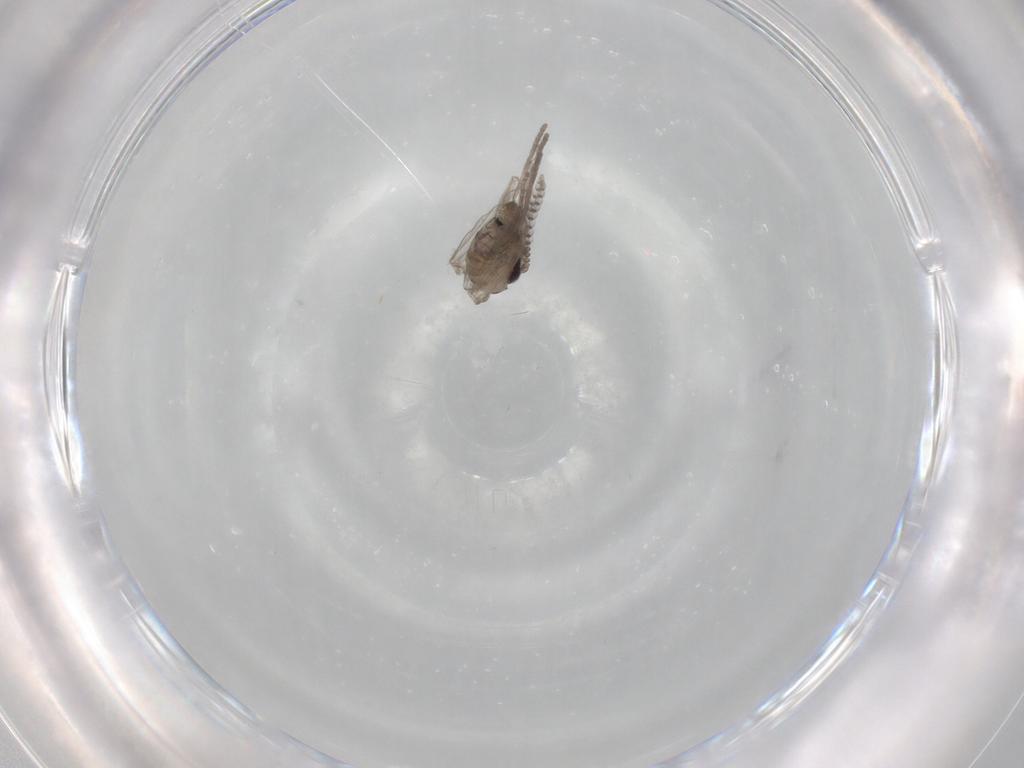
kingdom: Animalia
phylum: Arthropoda
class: Insecta
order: Diptera
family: Psychodidae
